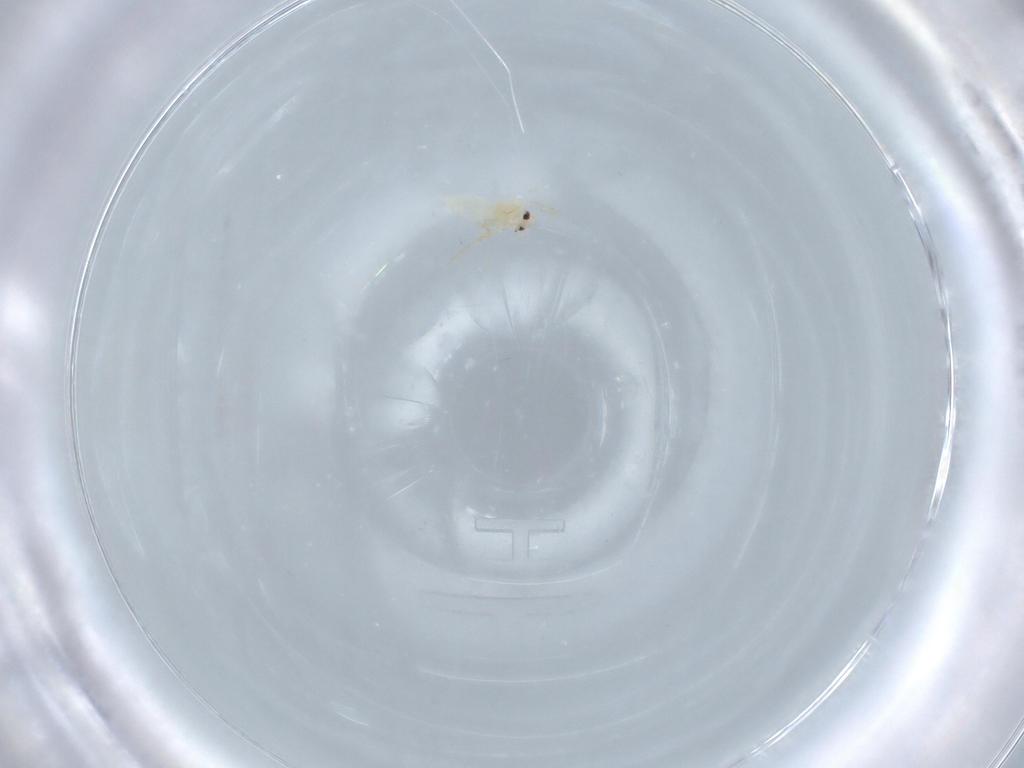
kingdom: Animalia
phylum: Arthropoda
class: Insecta
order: Hemiptera
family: Aleyrodidae
